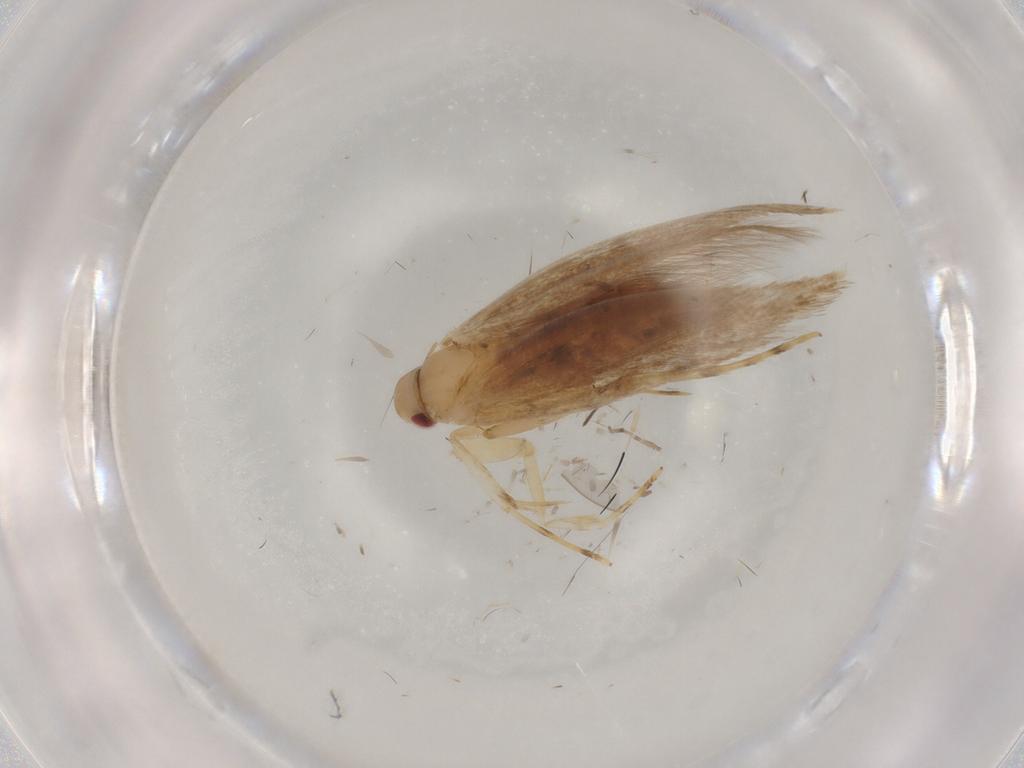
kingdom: Animalia
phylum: Arthropoda
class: Insecta
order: Lepidoptera
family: Cosmopterigidae
